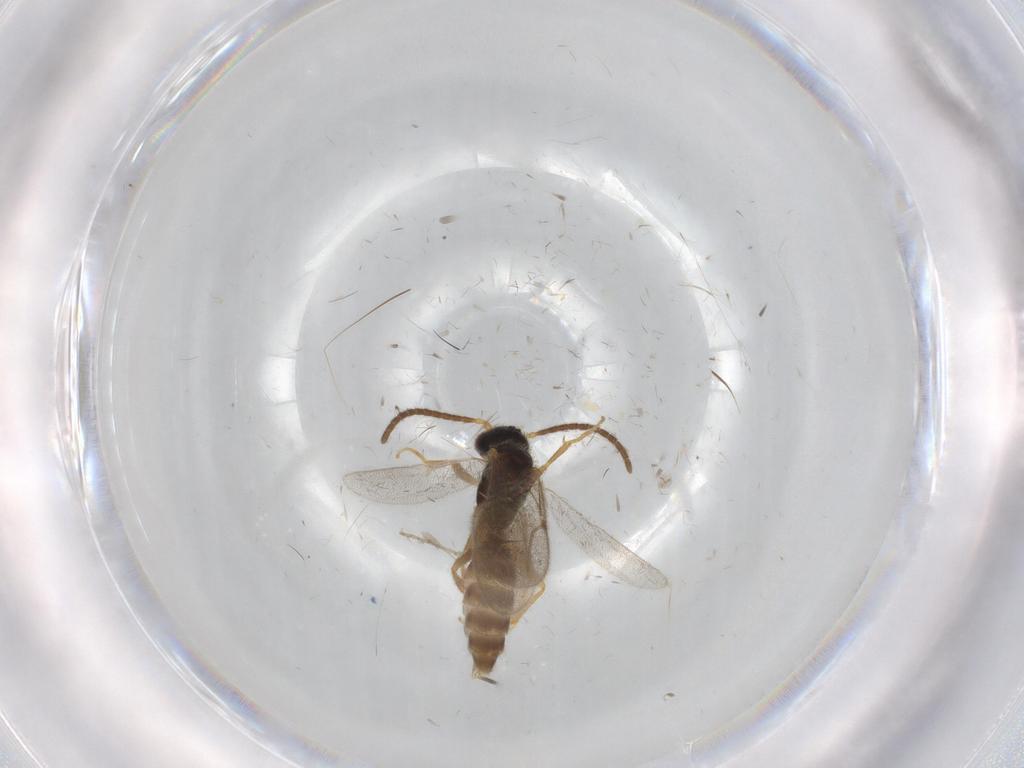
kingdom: Animalia
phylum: Arthropoda
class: Insecta
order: Hymenoptera
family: Bethylidae
